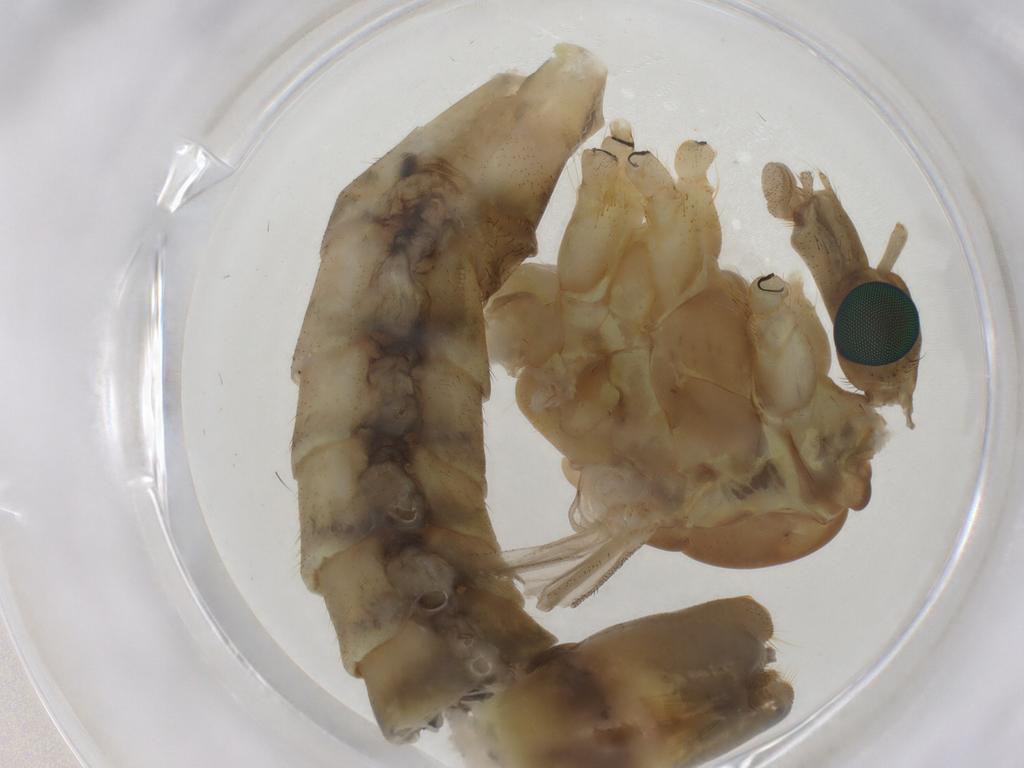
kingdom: Animalia
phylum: Arthropoda
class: Insecta
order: Diptera
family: Tipulidae
